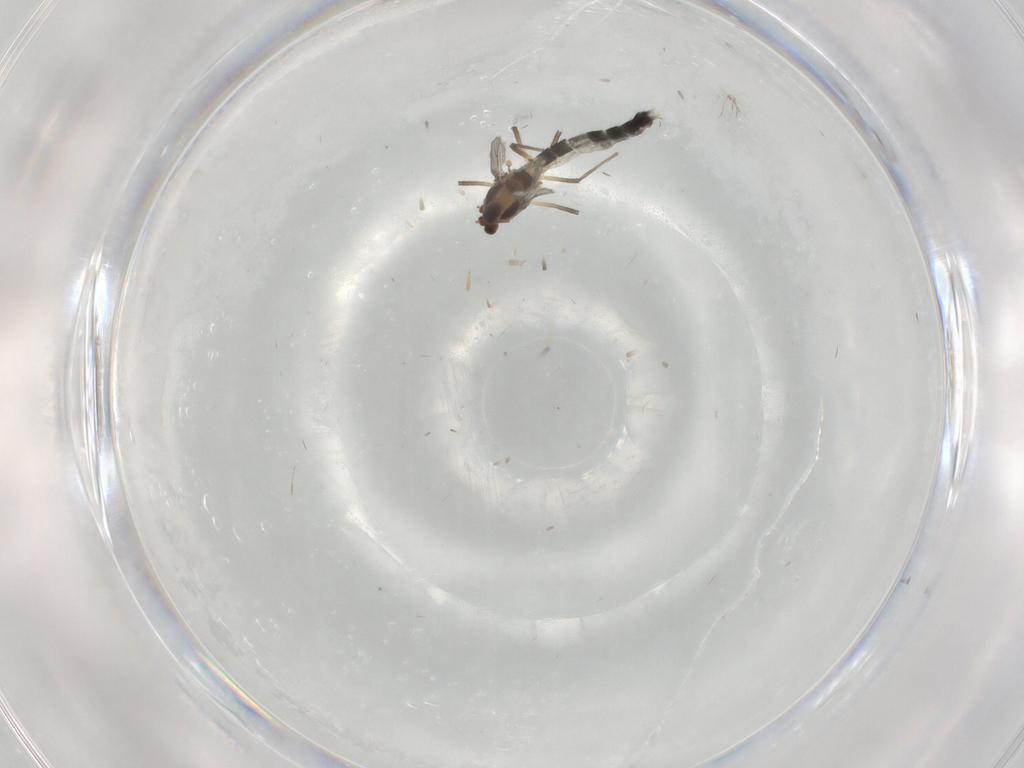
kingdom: Animalia
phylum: Arthropoda
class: Insecta
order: Diptera
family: Chironomidae
